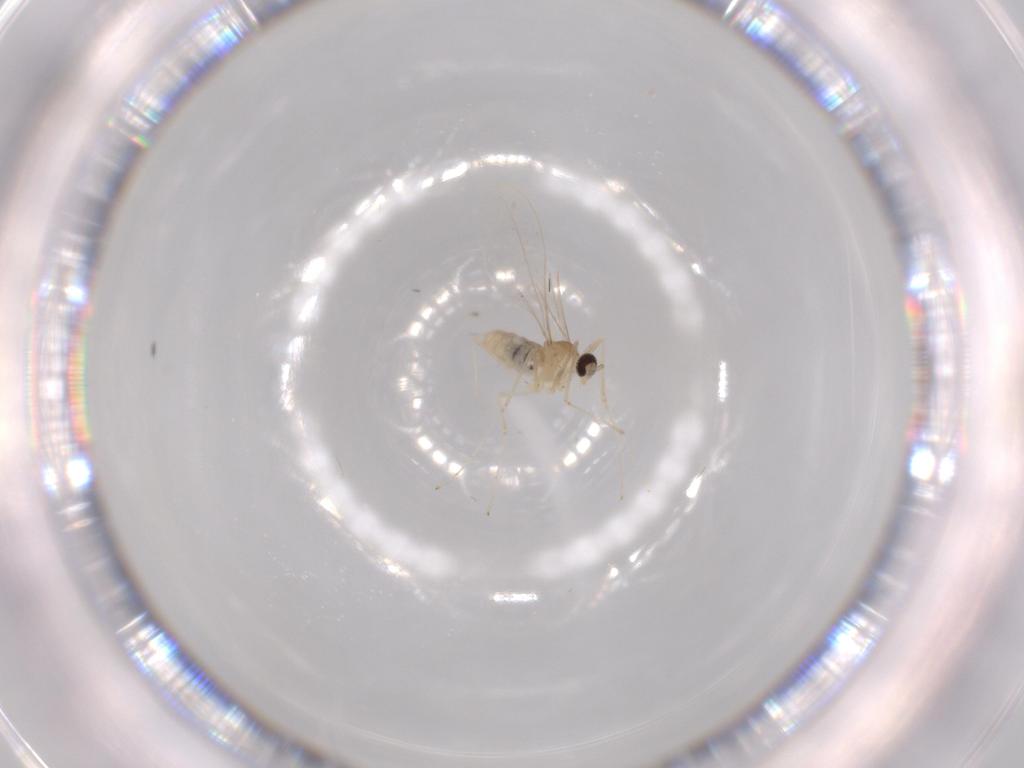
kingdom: Animalia
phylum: Arthropoda
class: Insecta
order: Diptera
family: Cecidomyiidae
